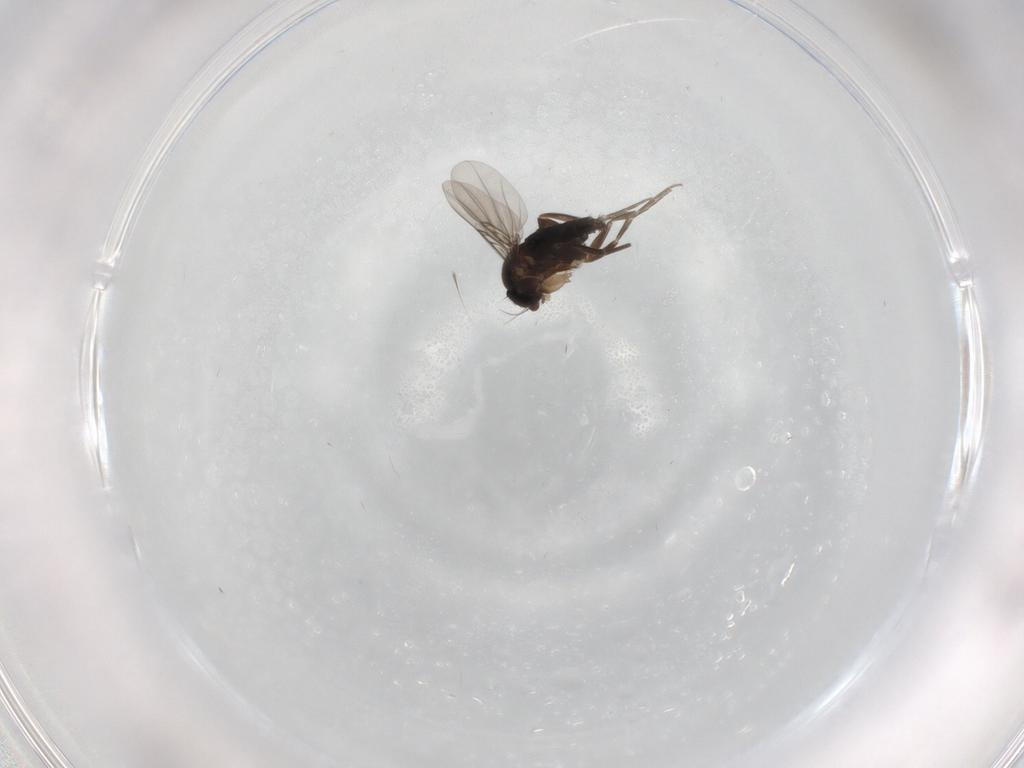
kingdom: Animalia
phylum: Arthropoda
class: Insecta
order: Diptera
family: Phoridae
